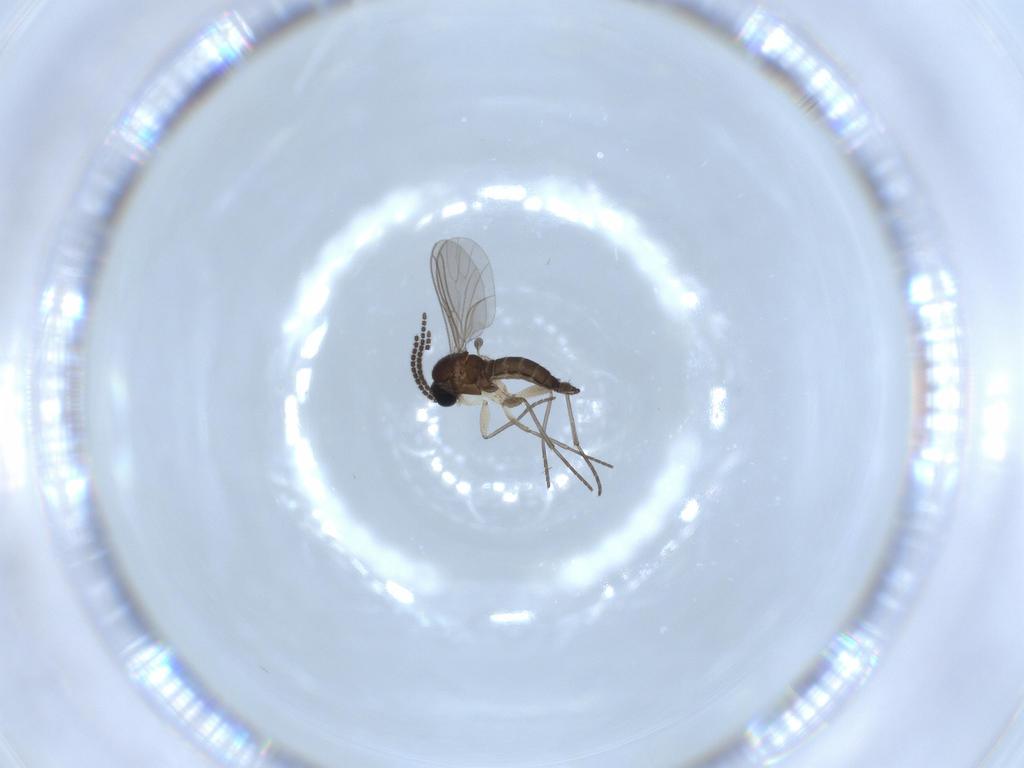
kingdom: Animalia
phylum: Arthropoda
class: Insecta
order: Diptera
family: Sciaridae
